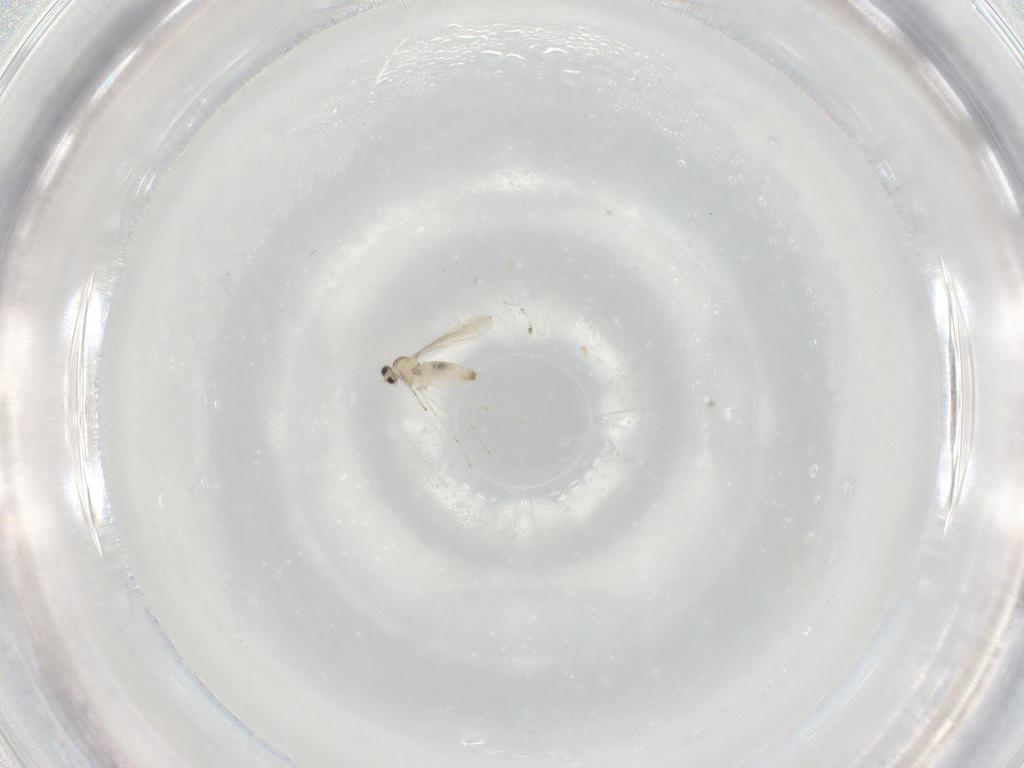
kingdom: Animalia
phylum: Arthropoda
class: Insecta
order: Diptera
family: Cecidomyiidae
